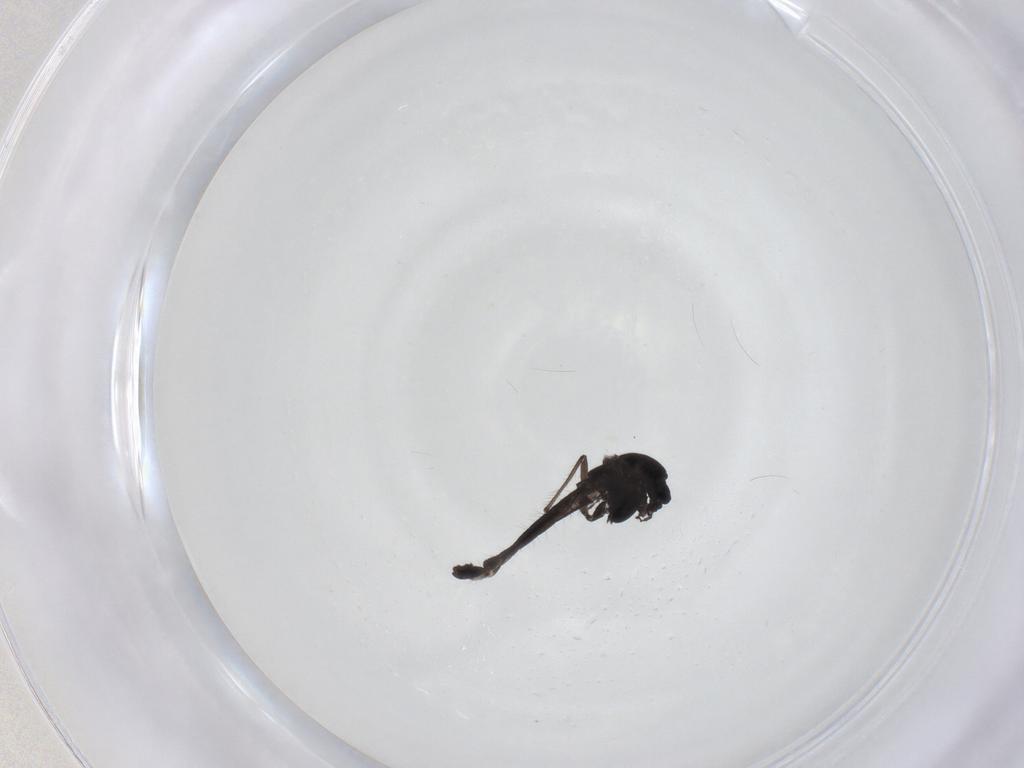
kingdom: Animalia
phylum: Arthropoda
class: Insecta
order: Diptera
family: Chironomidae
